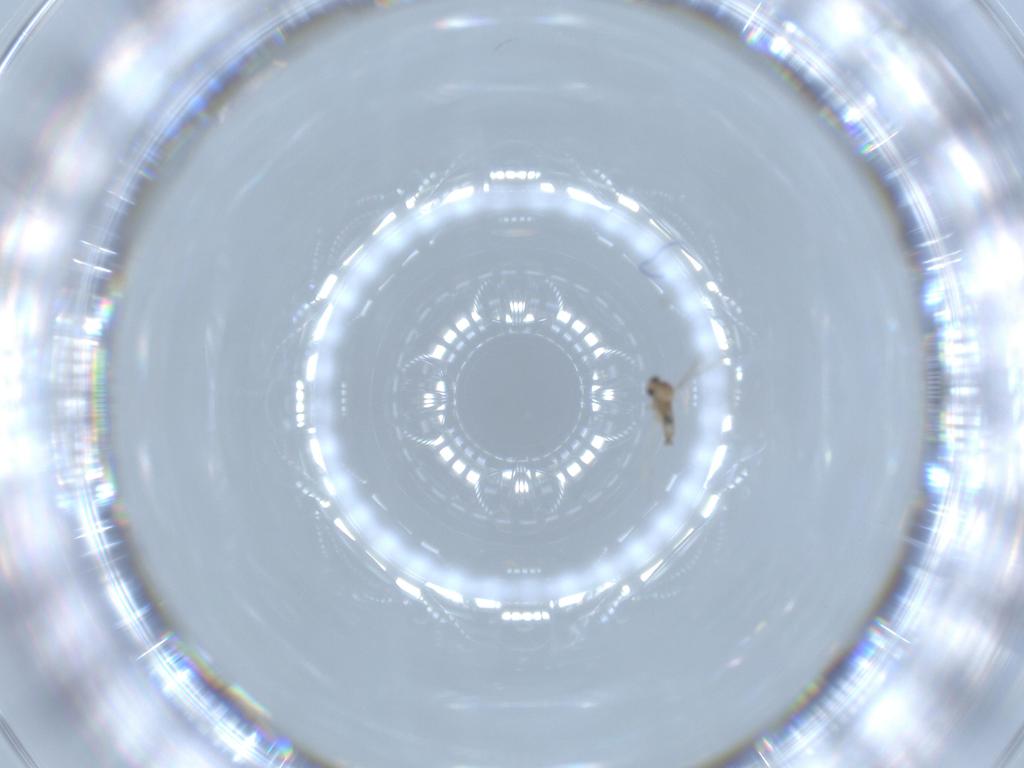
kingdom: Animalia
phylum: Arthropoda
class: Insecta
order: Diptera
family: Cecidomyiidae
